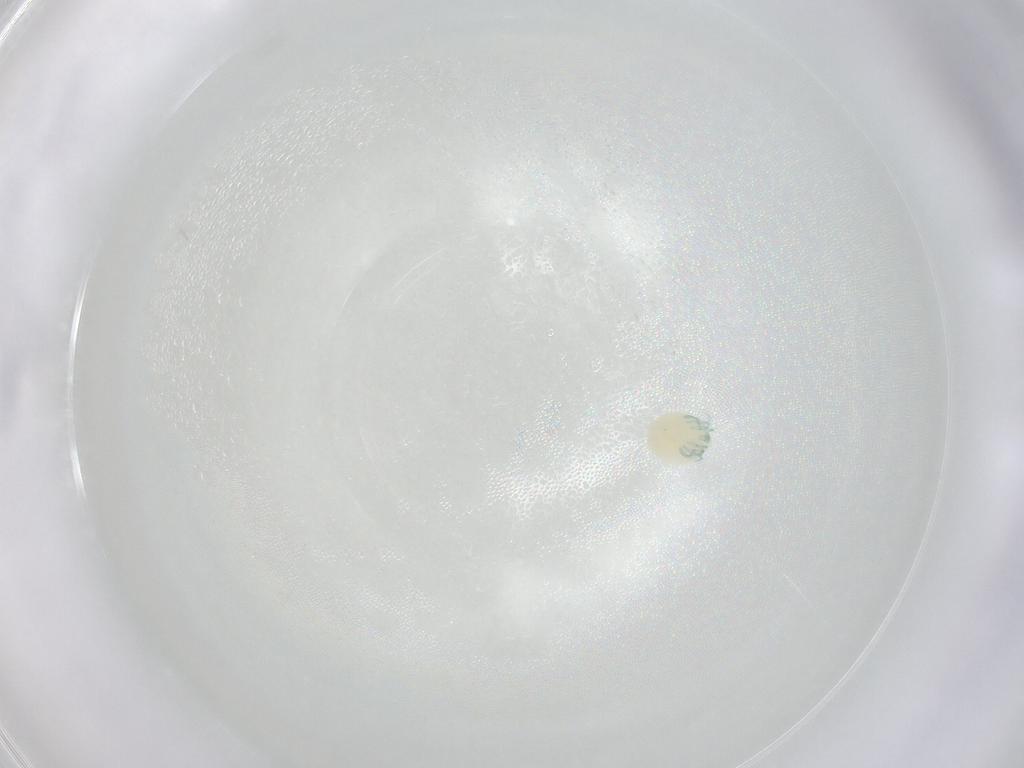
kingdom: Animalia
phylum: Arthropoda
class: Arachnida
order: Trombidiformes
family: Arrenuridae
